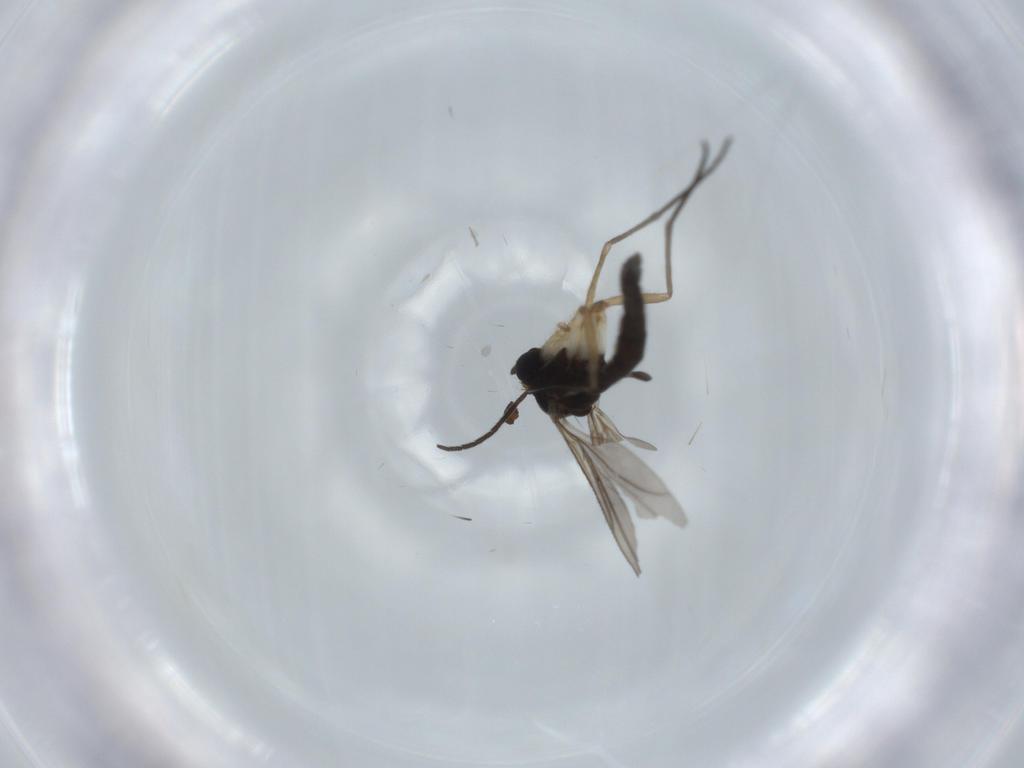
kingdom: Animalia
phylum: Arthropoda
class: Insecta
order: Diptera
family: Sciaridae
